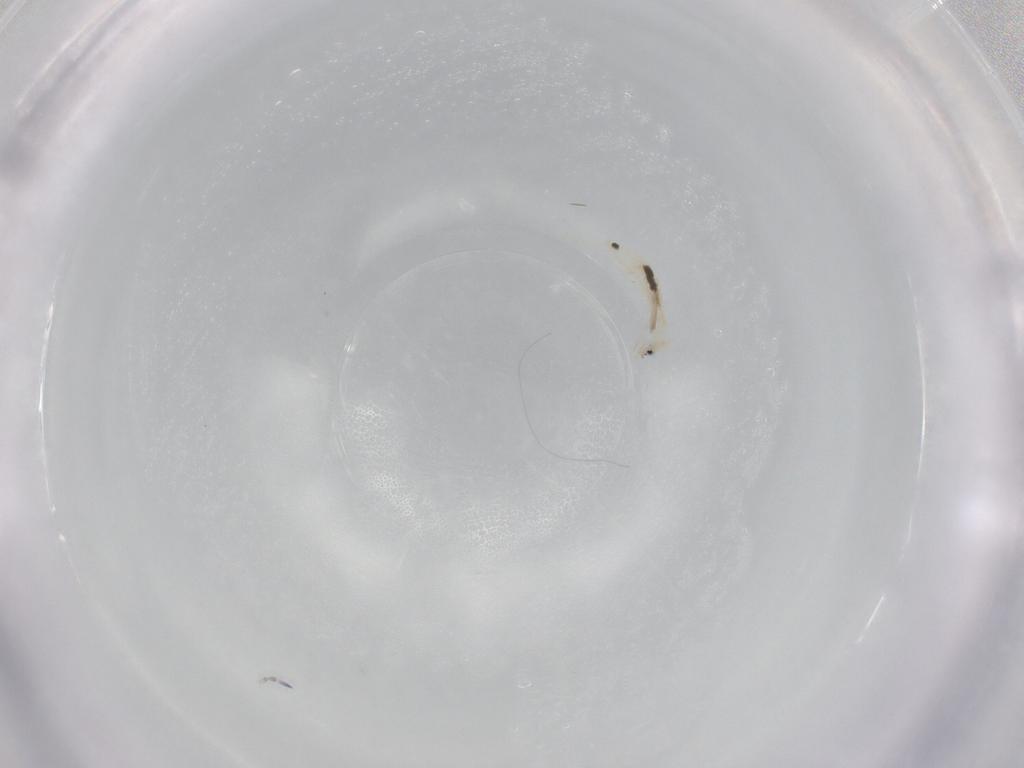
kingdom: Animalia
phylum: Arthropoda
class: Collembola
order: Entomobryomorpha
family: Entomobryidae
